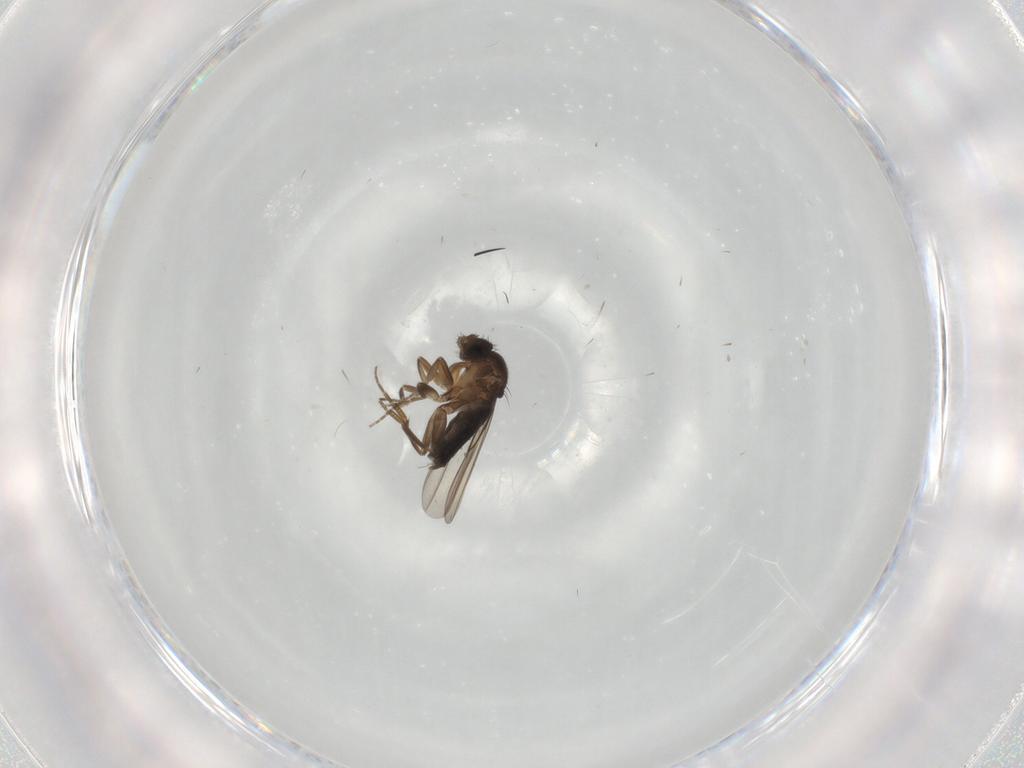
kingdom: Animalia
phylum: Arthropoda
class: Insecta
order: Diptera
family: Phoridae
